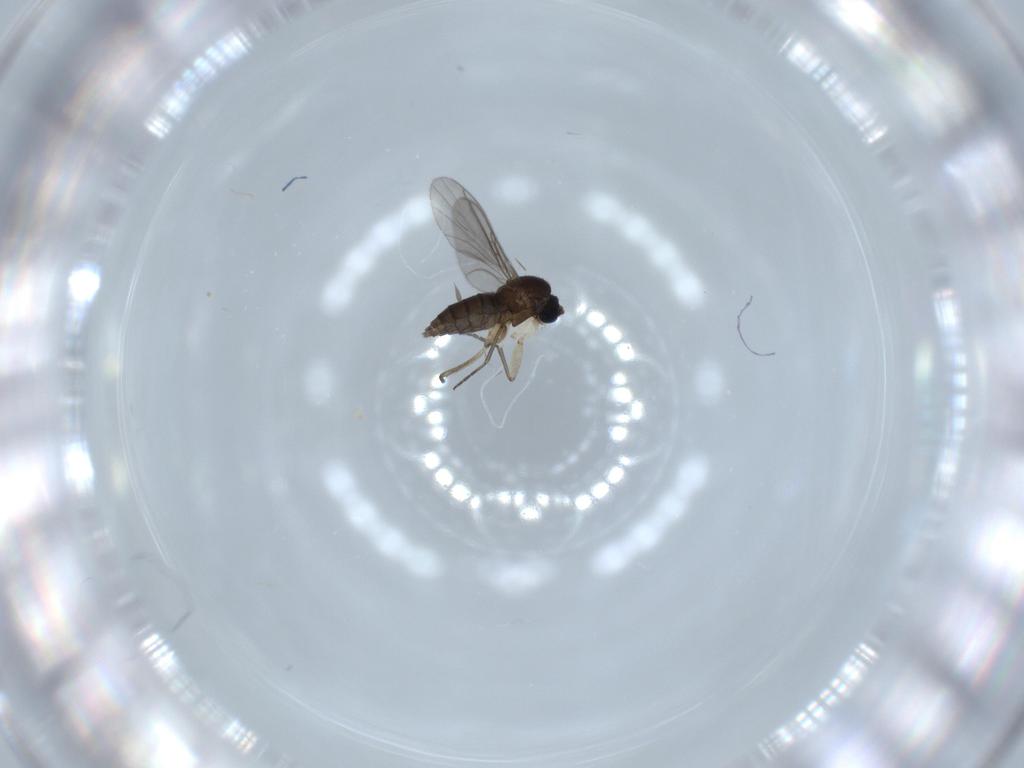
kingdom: Animalia
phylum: Arthropoda
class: Insecta
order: Diptera
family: Sciaridae
